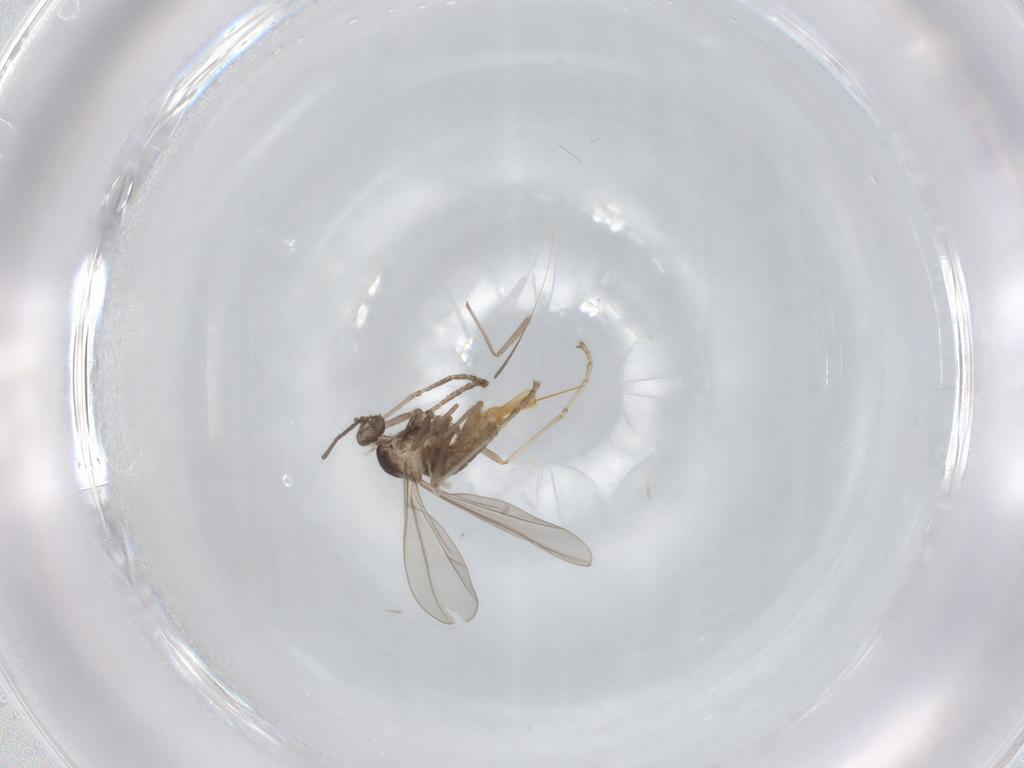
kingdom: Animalia
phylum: Arthropoda
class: Insecta
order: Diptera
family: Cecidomyiidae
